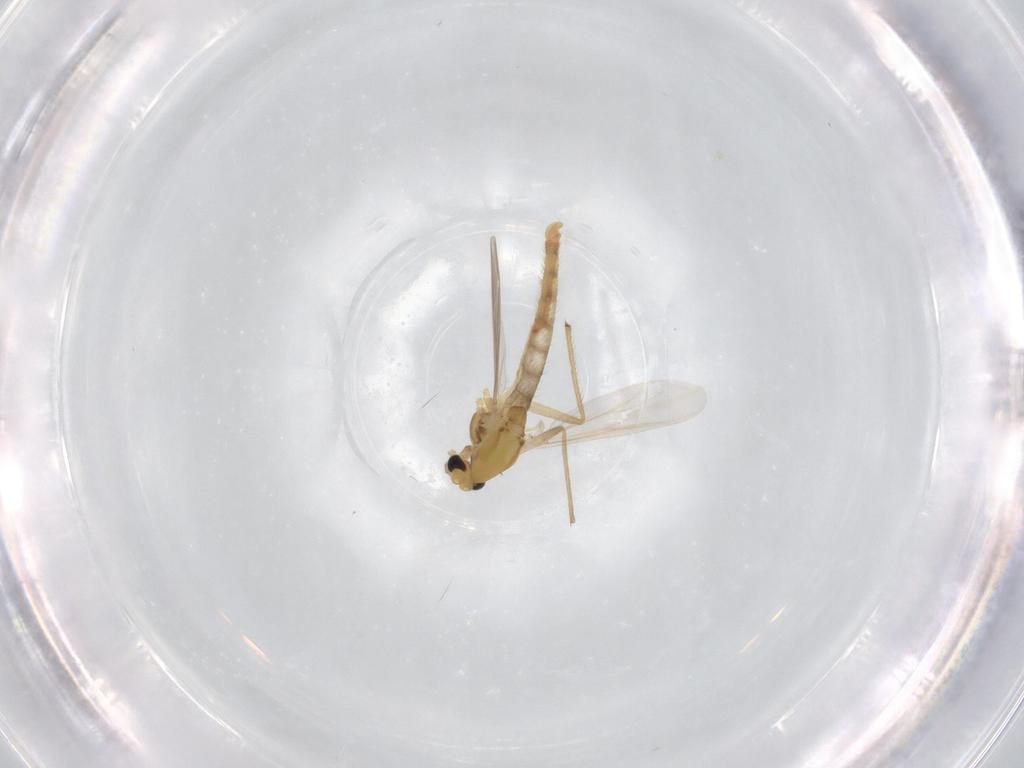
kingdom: Animalia
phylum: Arthropoda
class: Insecta
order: Diptera
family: Chironomidae
